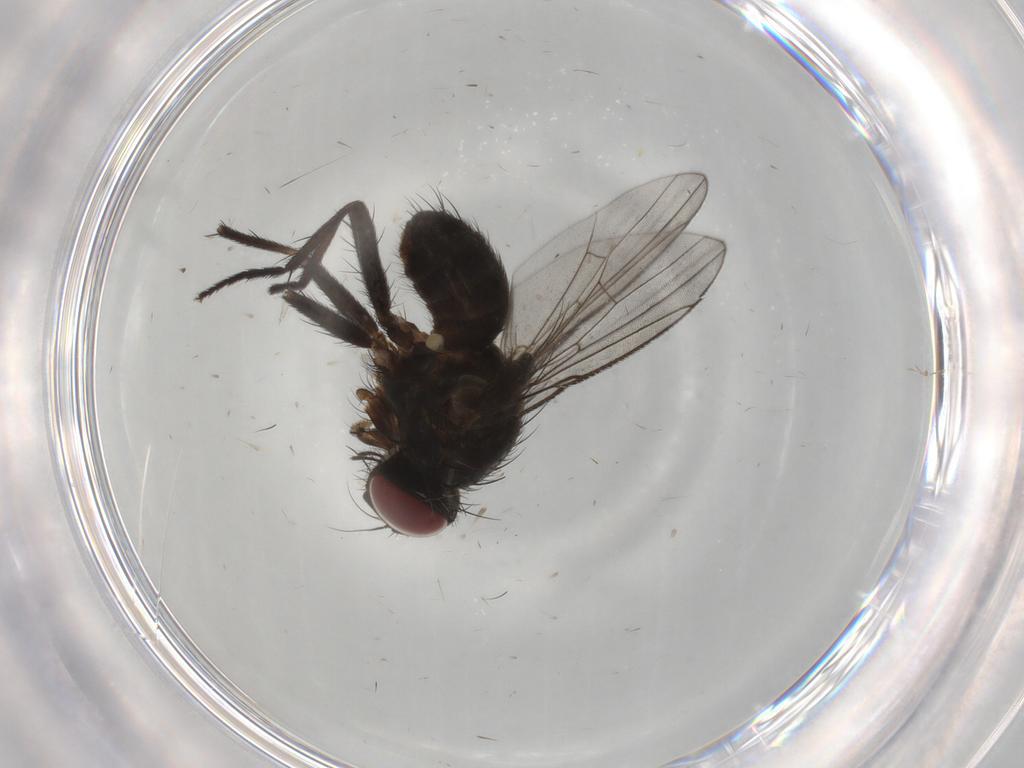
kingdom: Animalia
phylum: Arthropoda
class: Insecta
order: Diptera
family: Muscidae
